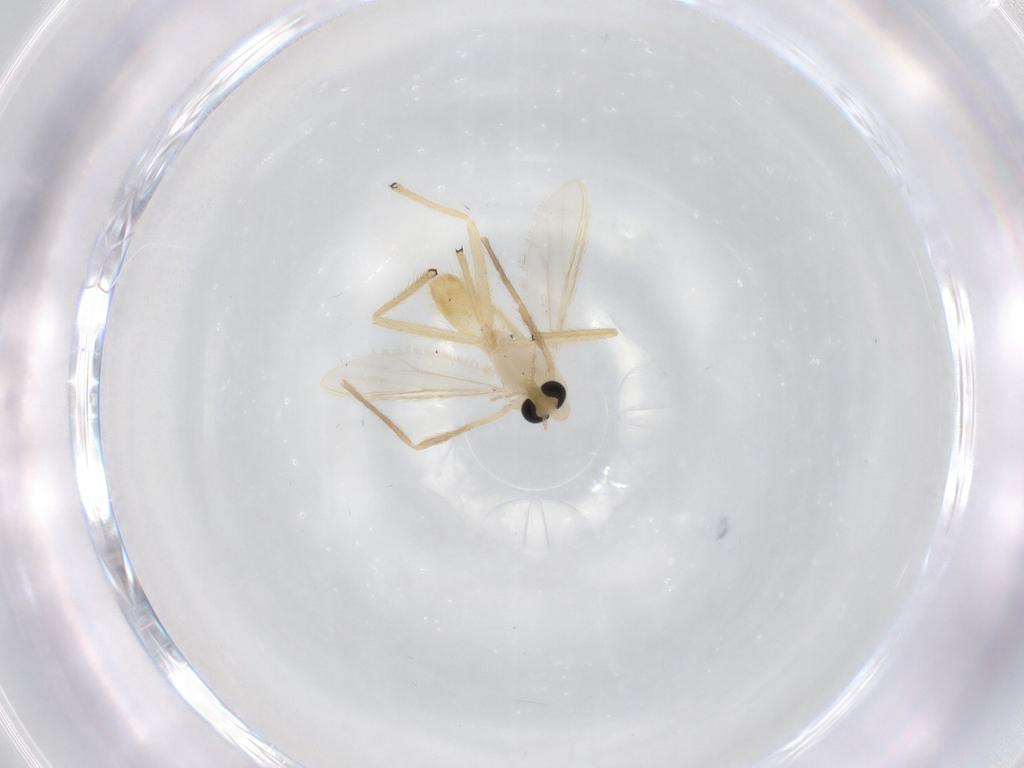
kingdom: Animalia
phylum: Arthropoda
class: Insecta
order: Diptera
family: Chironomidae
